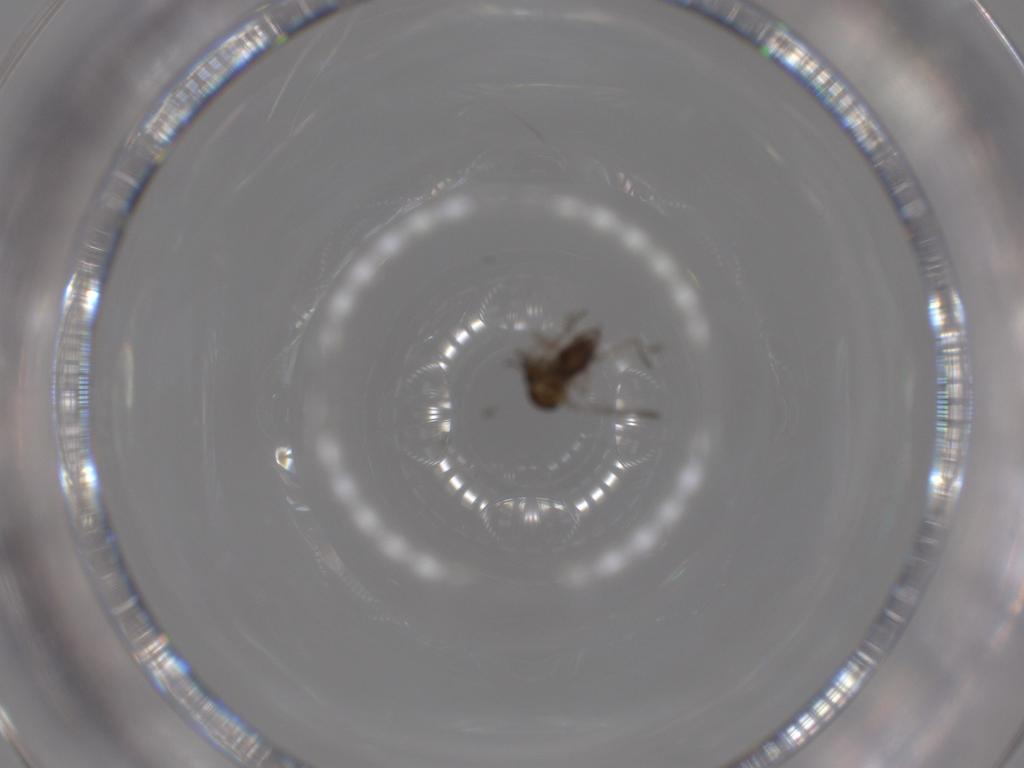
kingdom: Animalia
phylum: Arthropoda
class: Insecta
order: Diptera
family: Ceratopogonidae
